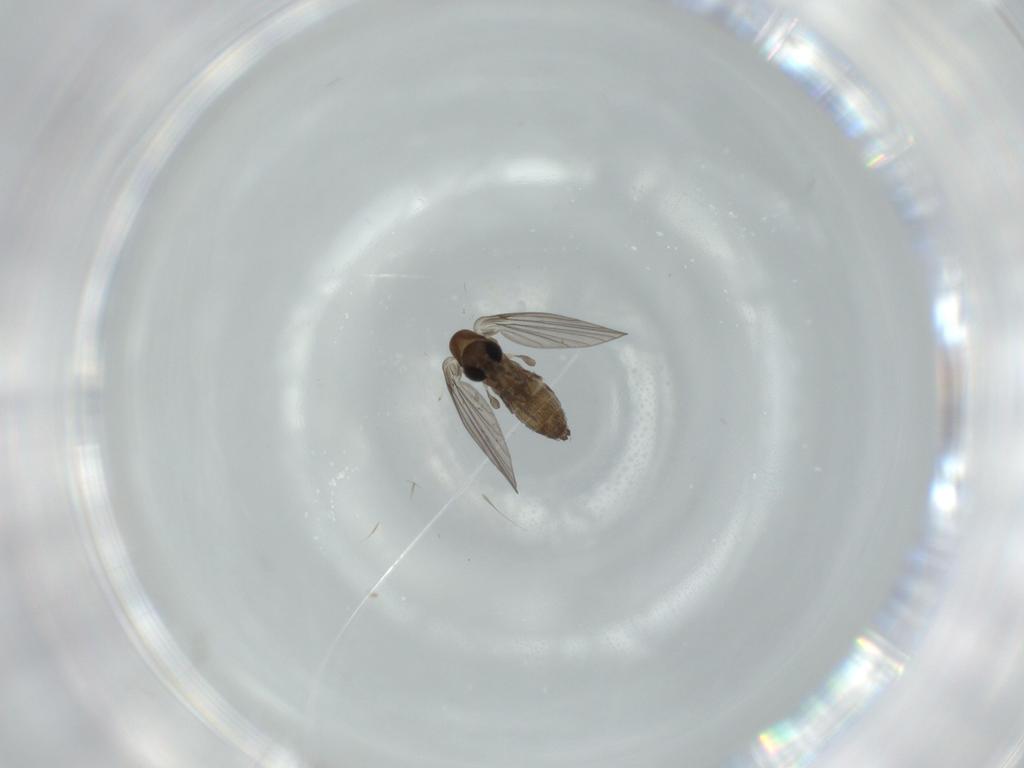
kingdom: Animalia
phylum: Arthropoda
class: Insecta
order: Diptera
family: Psychodidae
